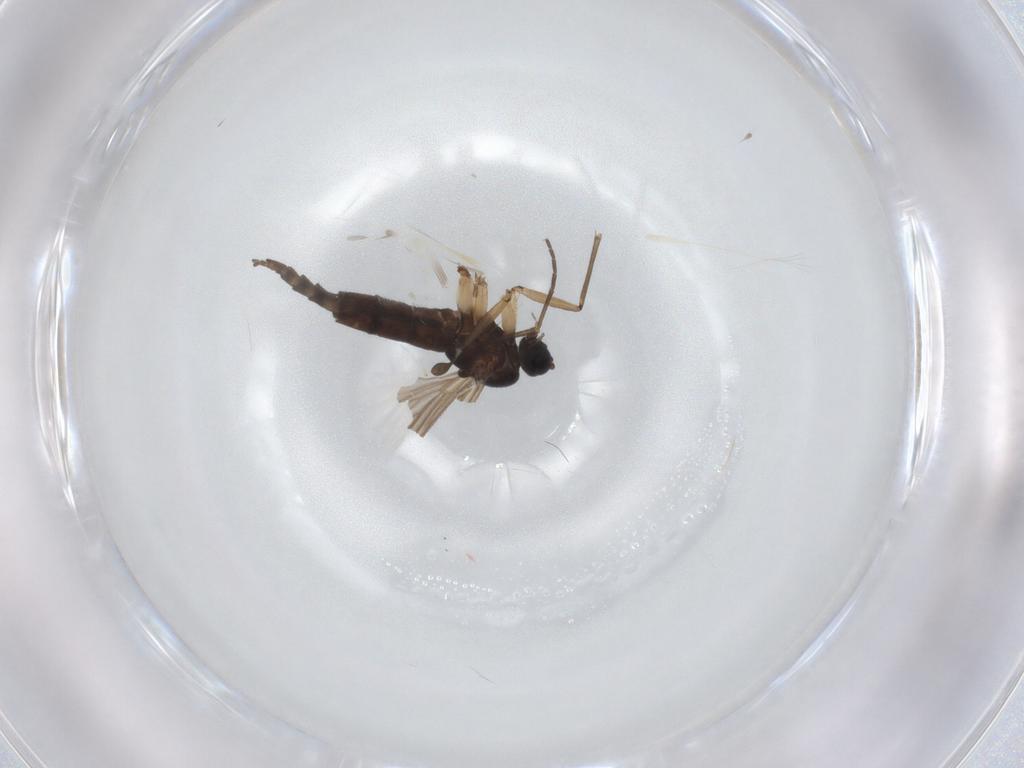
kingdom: Animalia
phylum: Arthropoda
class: Insecta
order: Diptera
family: Sciaridae
